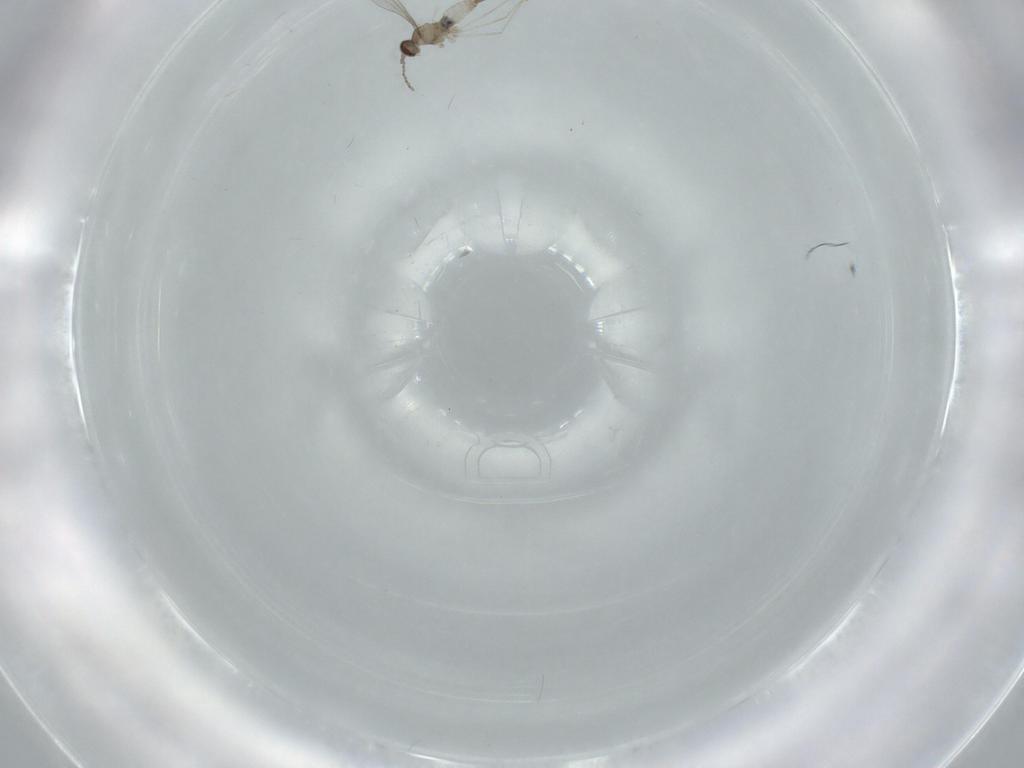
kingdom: Animalia
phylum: Arthropoda
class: Insecta
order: Diptera
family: Cecidomyiidae
